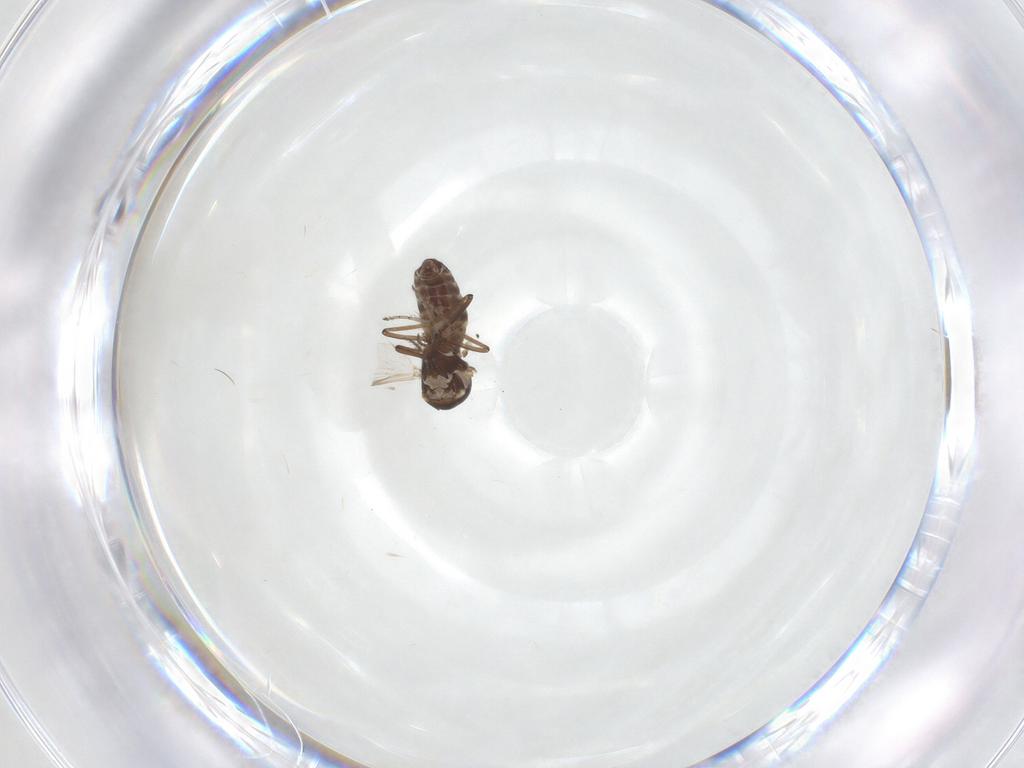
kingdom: Animalia
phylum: Arthropoda
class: Insecta
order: Diptera
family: Ceratopogonidae
